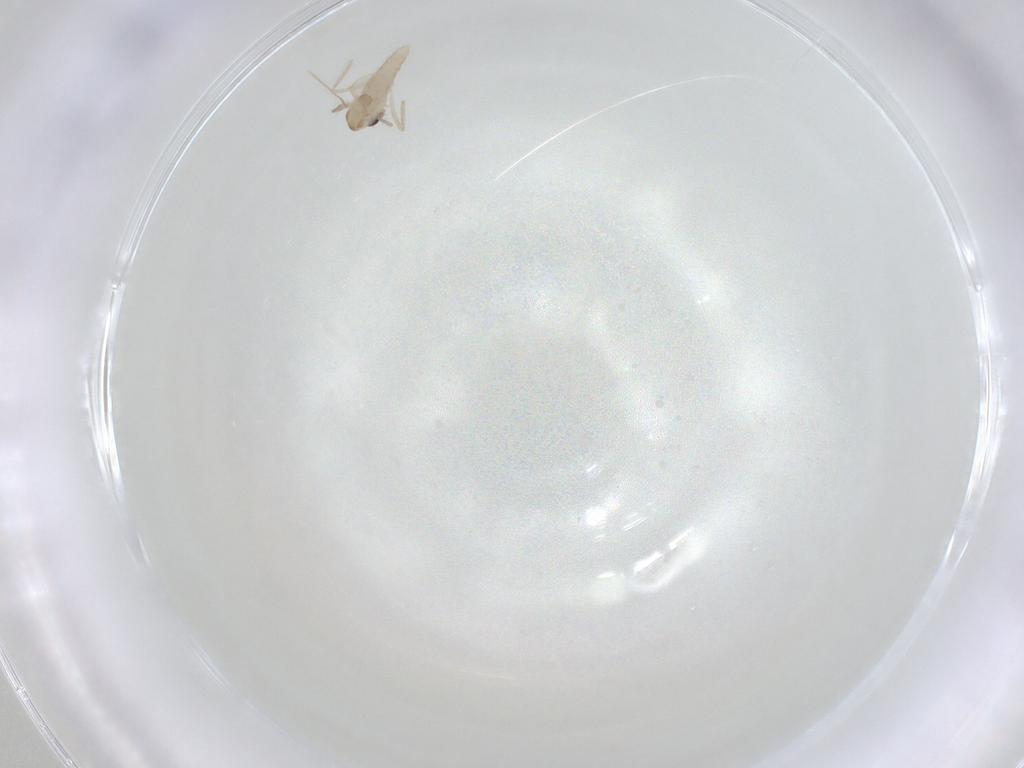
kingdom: Animalia
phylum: Arthropoda
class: Insecta
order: Diptera
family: Chironomidae
